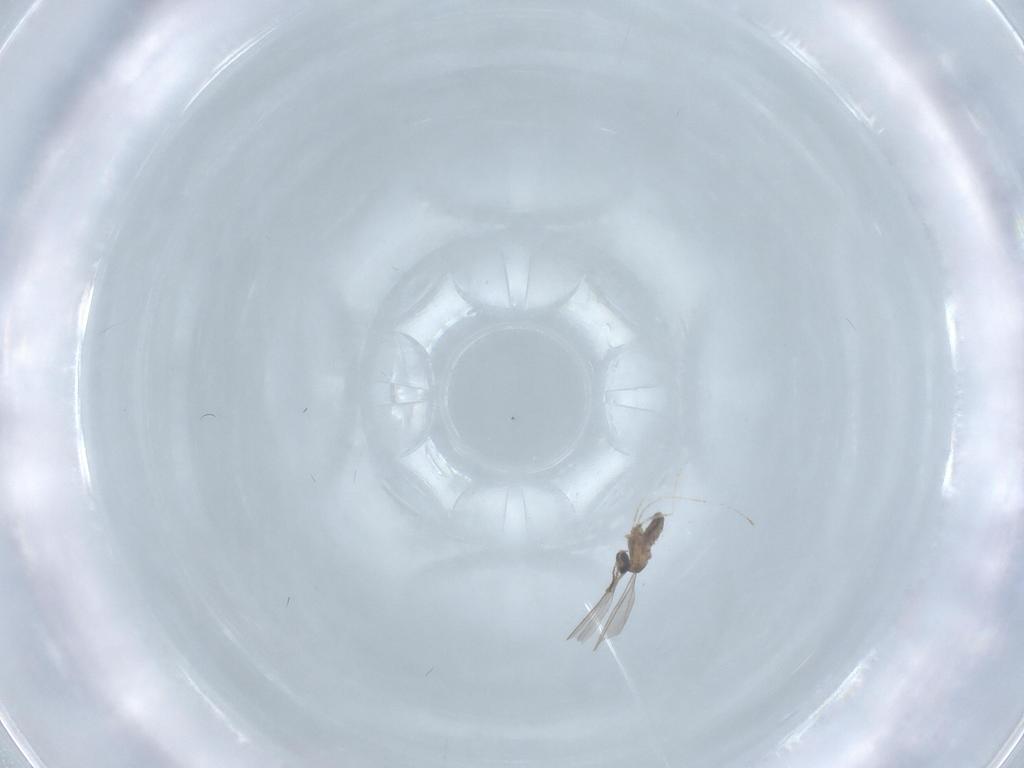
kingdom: Animalia
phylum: Arthropoda
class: Insecta
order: Diptera
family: Cecidomyiidae
